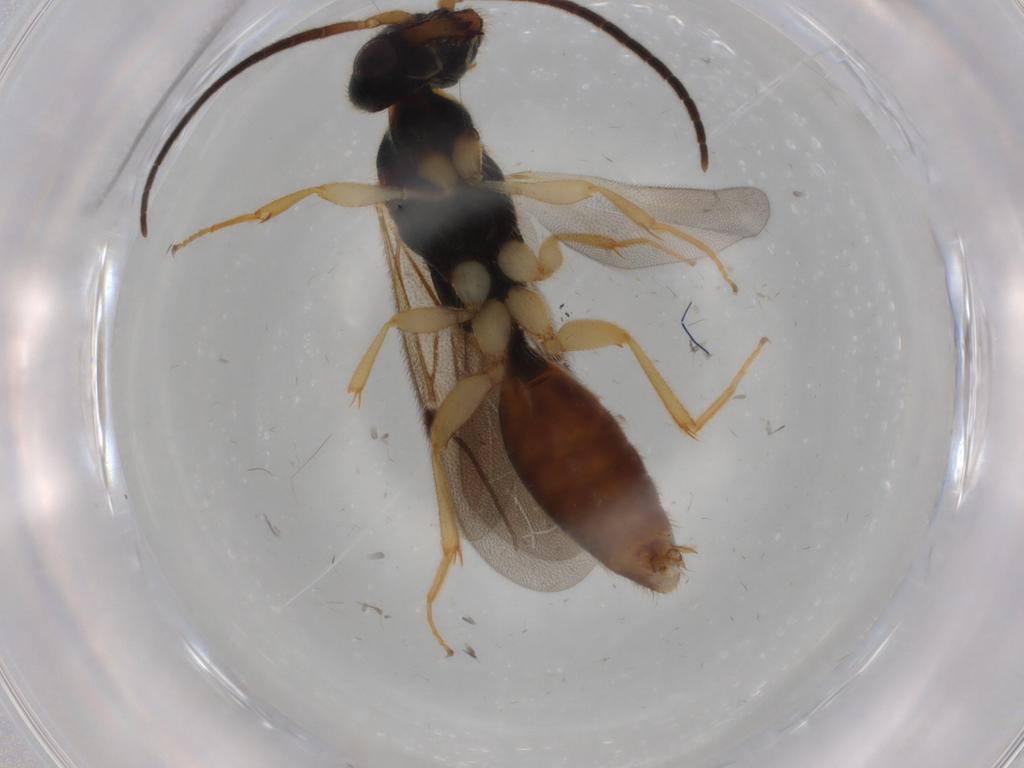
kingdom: Animalia
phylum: Arthropoda
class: Insecta
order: Hymenoptera
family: Bethylidae
